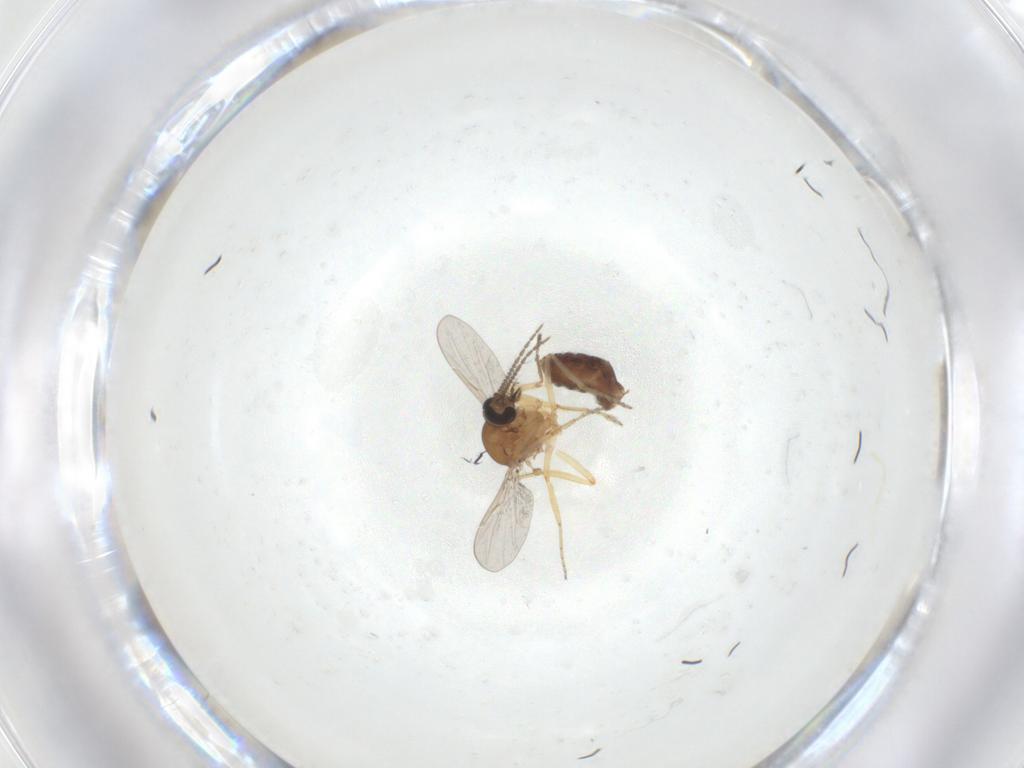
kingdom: Animalia
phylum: Arthropoda
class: Insecta
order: Diptera
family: Ceratopogonidae
